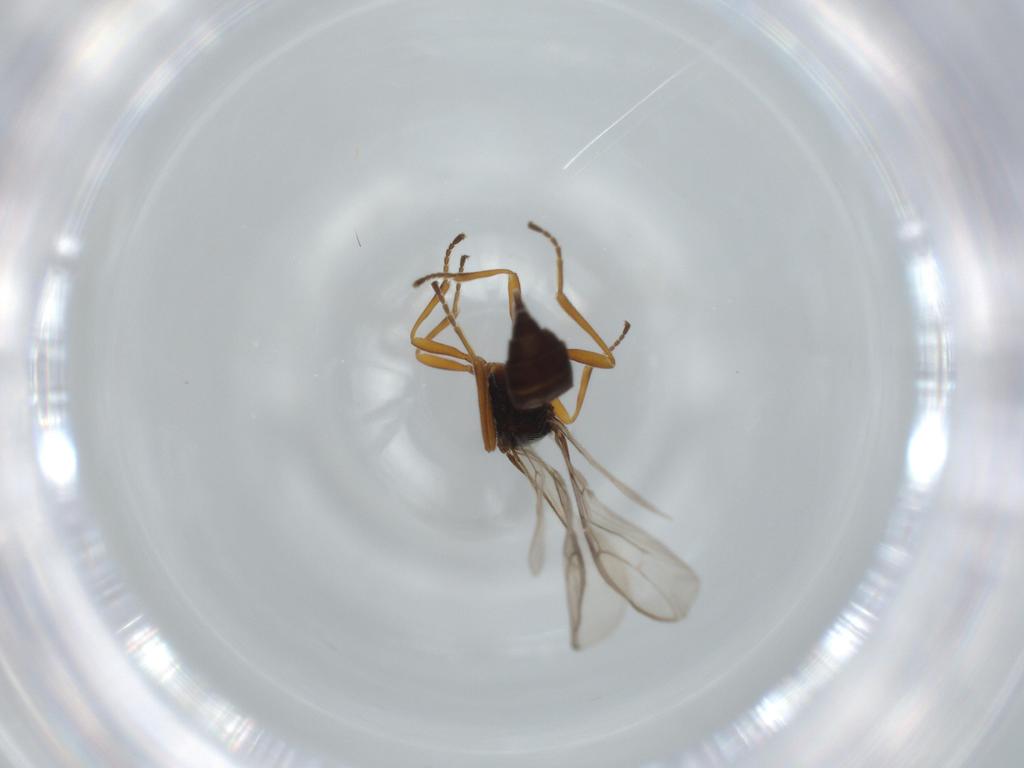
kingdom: Animalia
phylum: Arthropoda
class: Insecta
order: Hymenoptera
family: Braconidae
